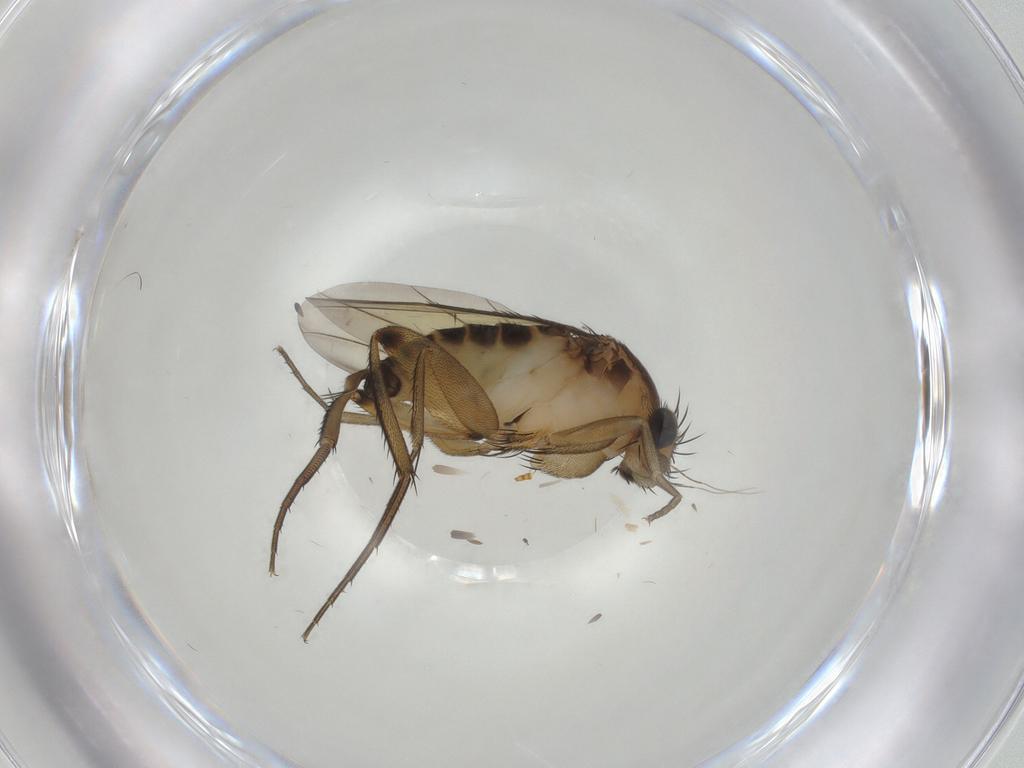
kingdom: Animalia
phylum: Arthropoda
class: Insecta
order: Diptera
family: Phoridae
